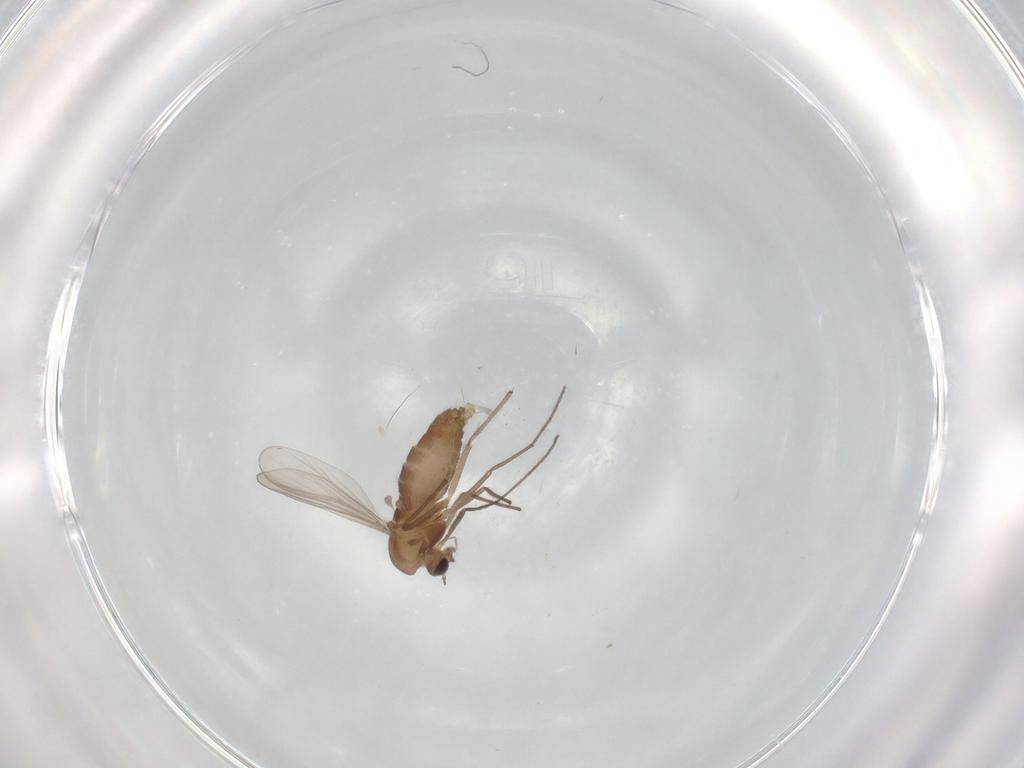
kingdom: Animalia
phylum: Arthropoda
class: Insecta
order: Diptera
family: Chironomidae
